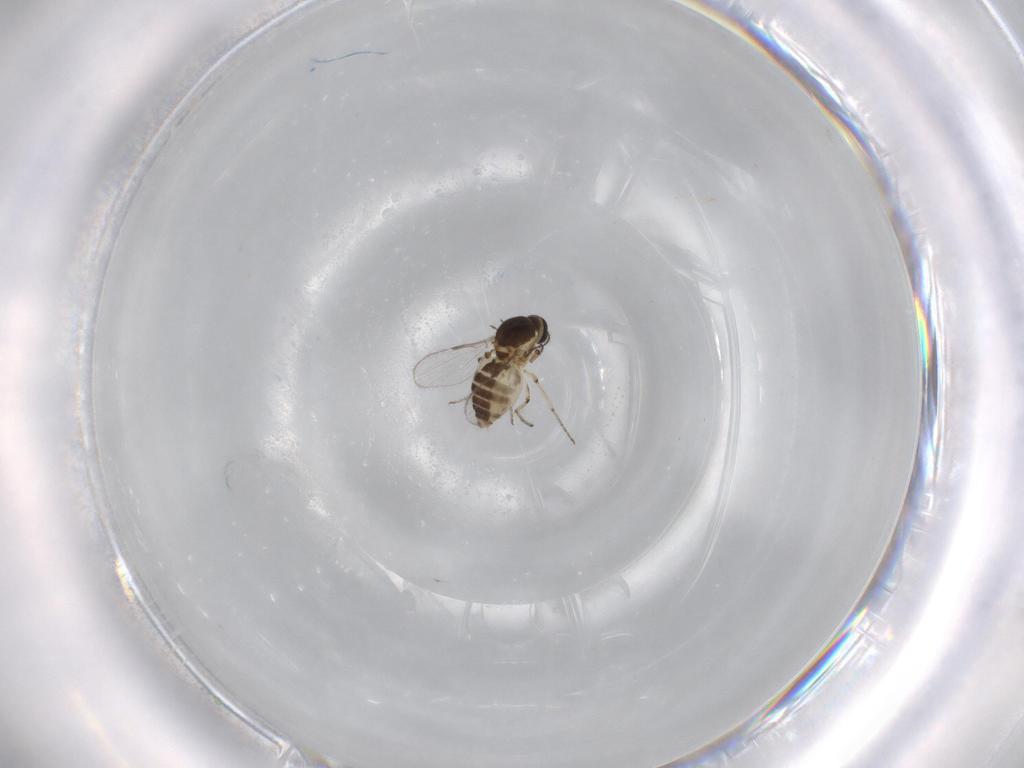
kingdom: Animalia
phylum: Arthropoda
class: Insecta
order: Diptera
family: Ceratopogonidae
